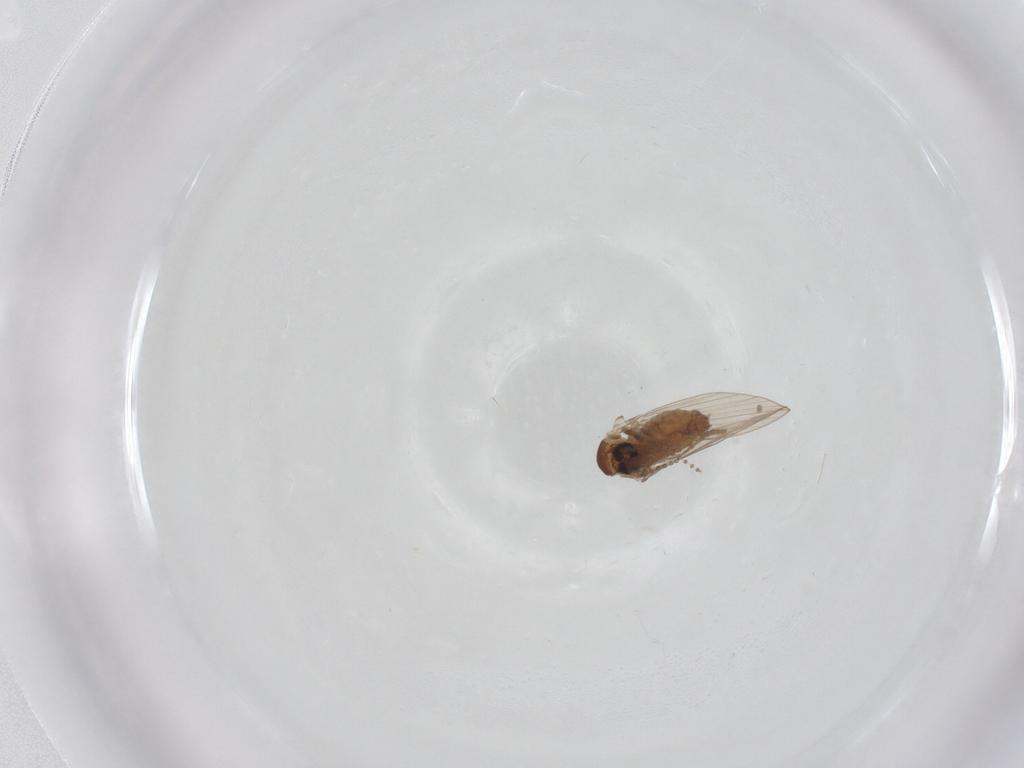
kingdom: Animalia
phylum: Arthropoda
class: Insecta
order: Diptera
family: Psychodidae
